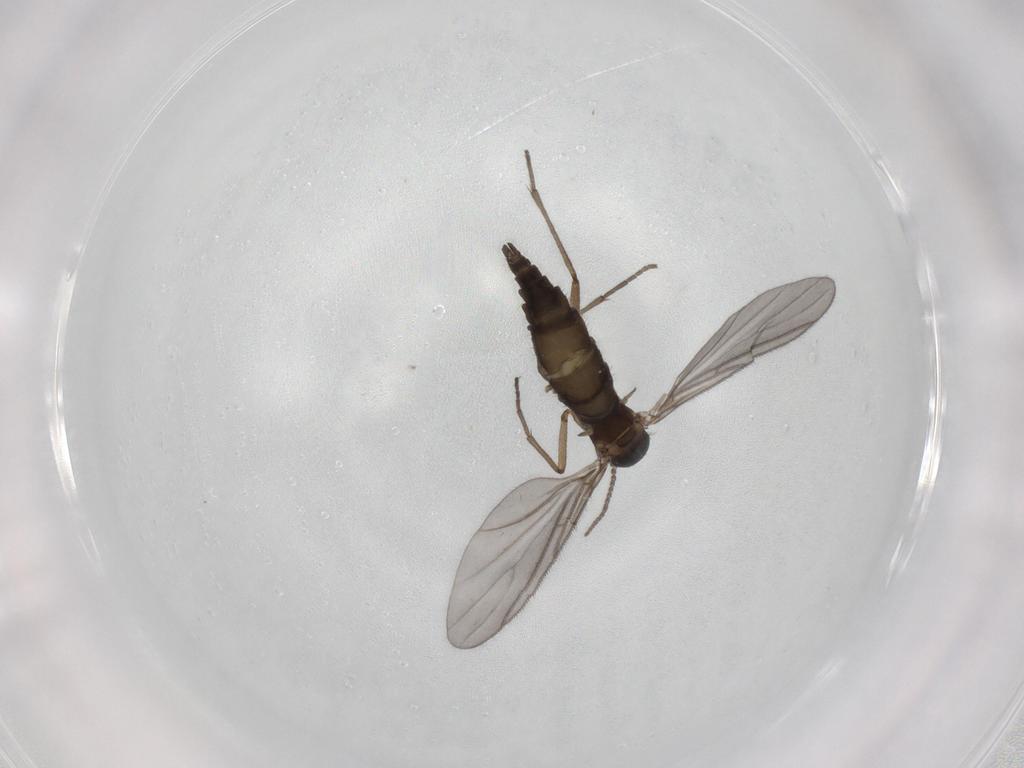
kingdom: Animalia
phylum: Arthropoda
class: Insecta
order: Diptera
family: Sciaridae
